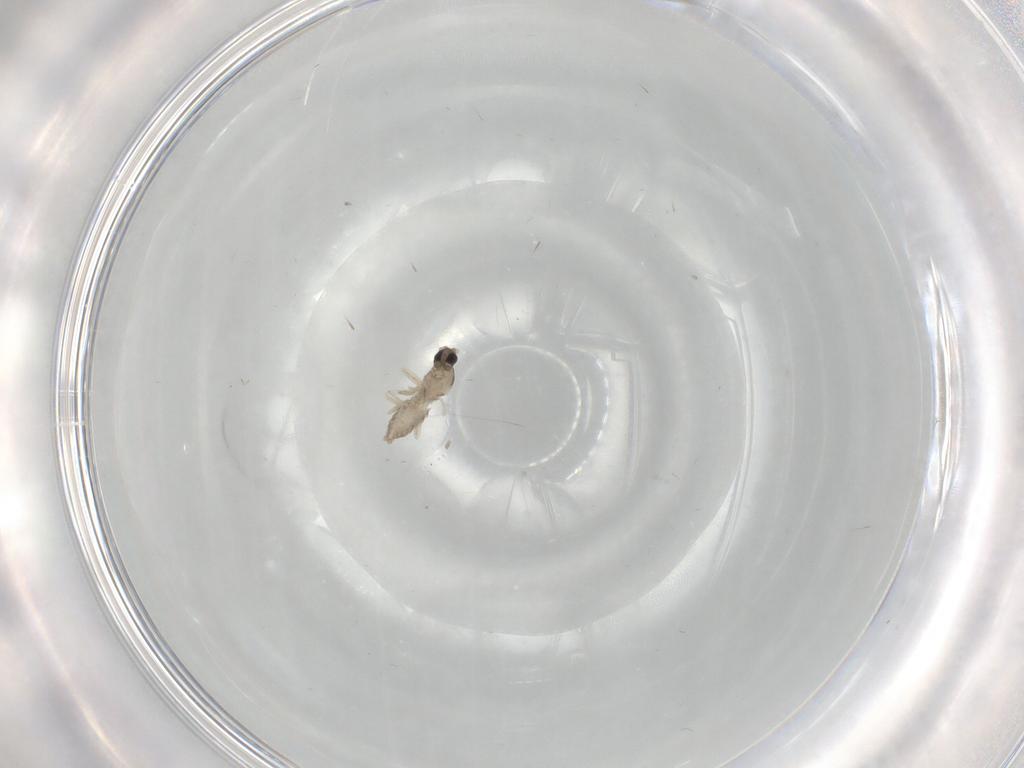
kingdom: Animalia
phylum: Arthropoda
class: Insecta
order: Diptera
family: Cecidomyiidae
